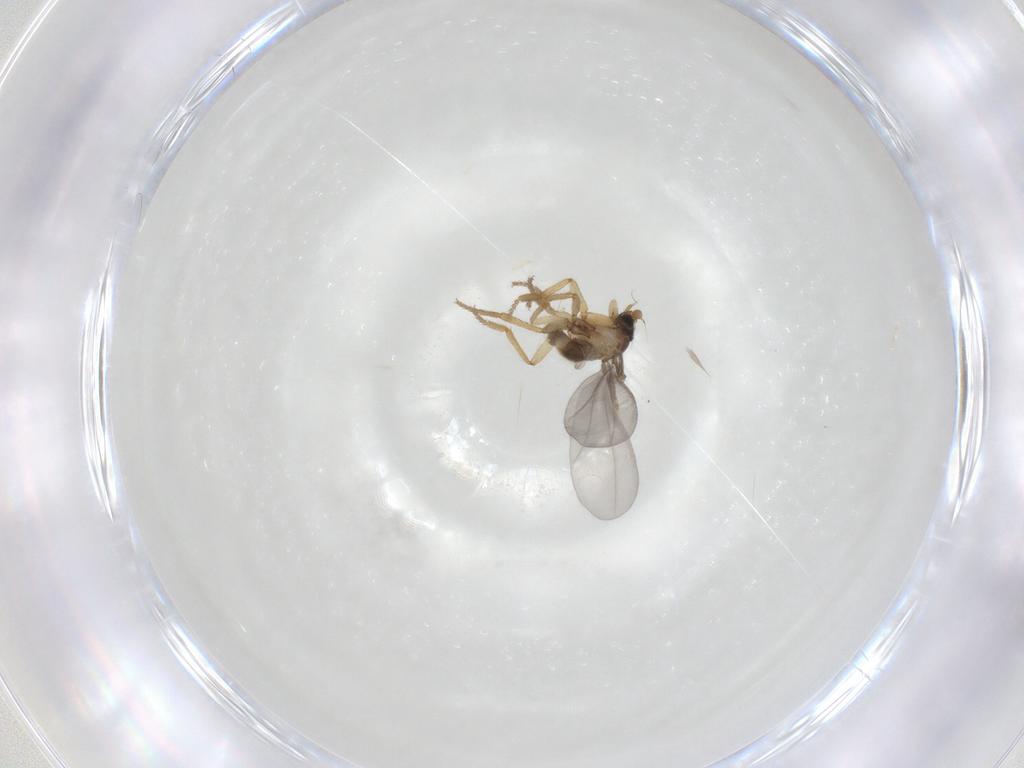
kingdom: Animalia
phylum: Arthropoda
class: Insecta
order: Diptera
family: Phoridae
